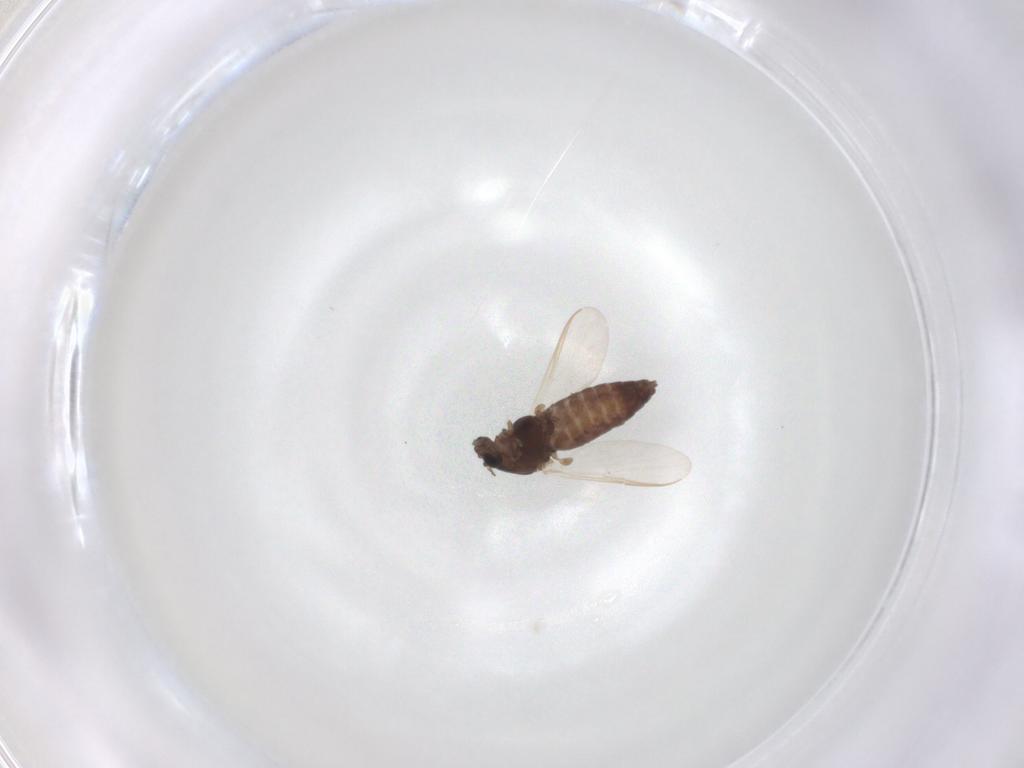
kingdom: Animalia
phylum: Arthropoda
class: Insecta
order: Diptera
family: Chironomidae
